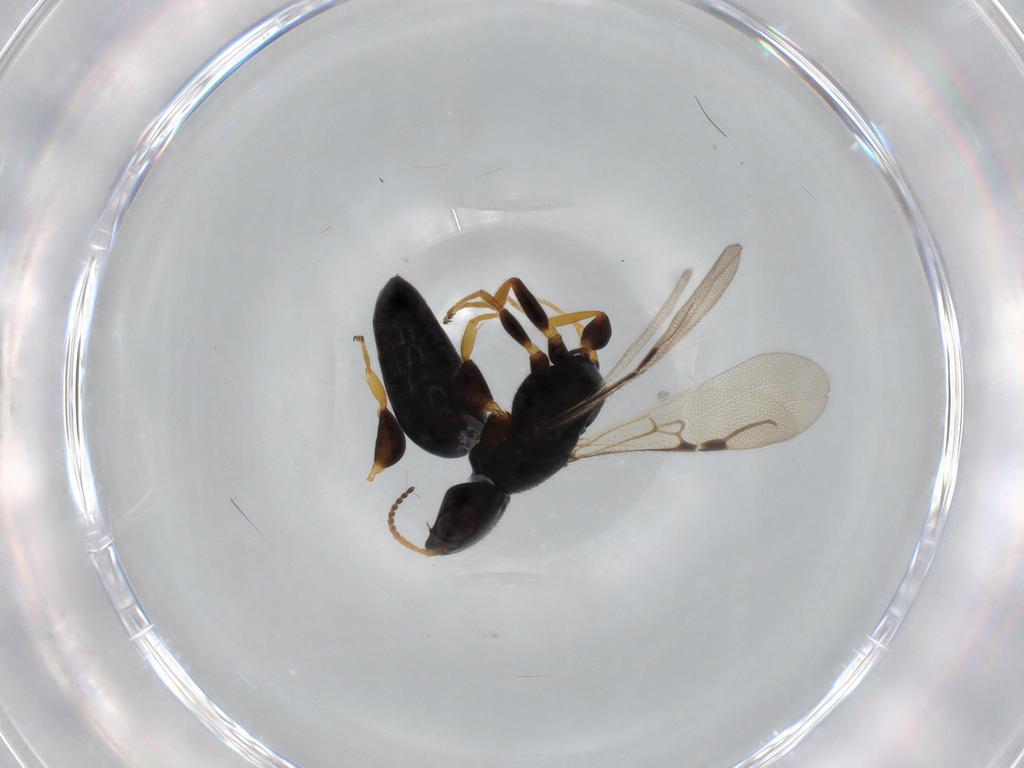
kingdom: Animalia
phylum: Arthropoda
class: Insecta
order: Hymenoptera
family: Bethylidae
